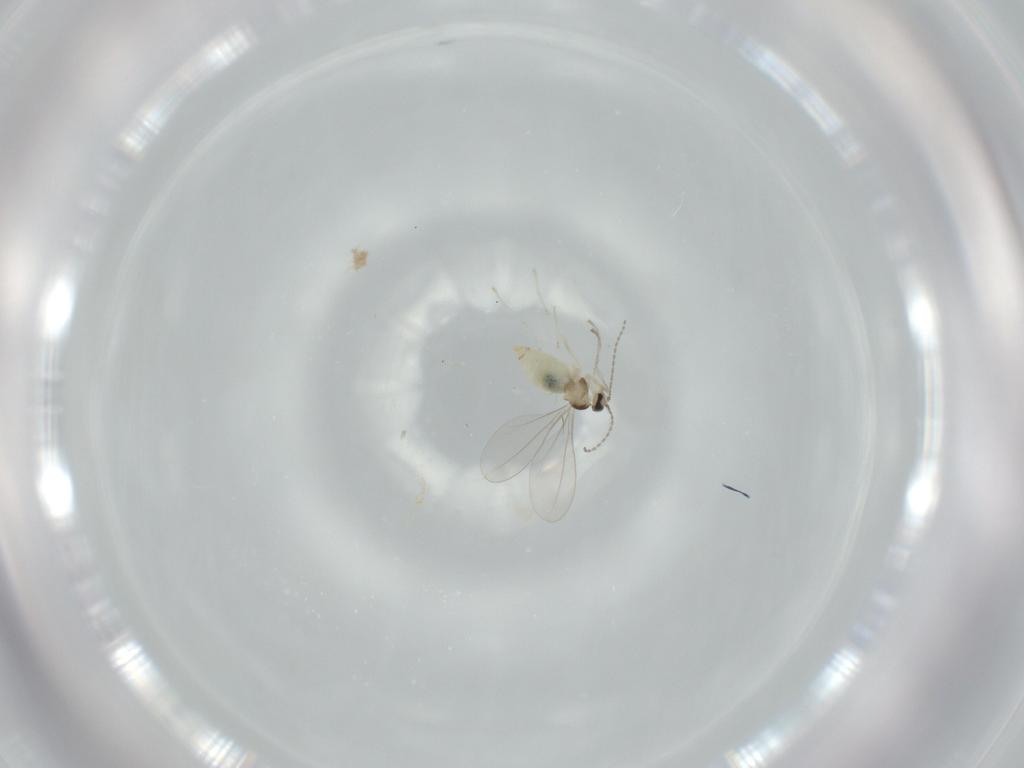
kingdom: Animalia
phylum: Arthropoda
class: Insecta
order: Diptera
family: Cecidomyiidae
